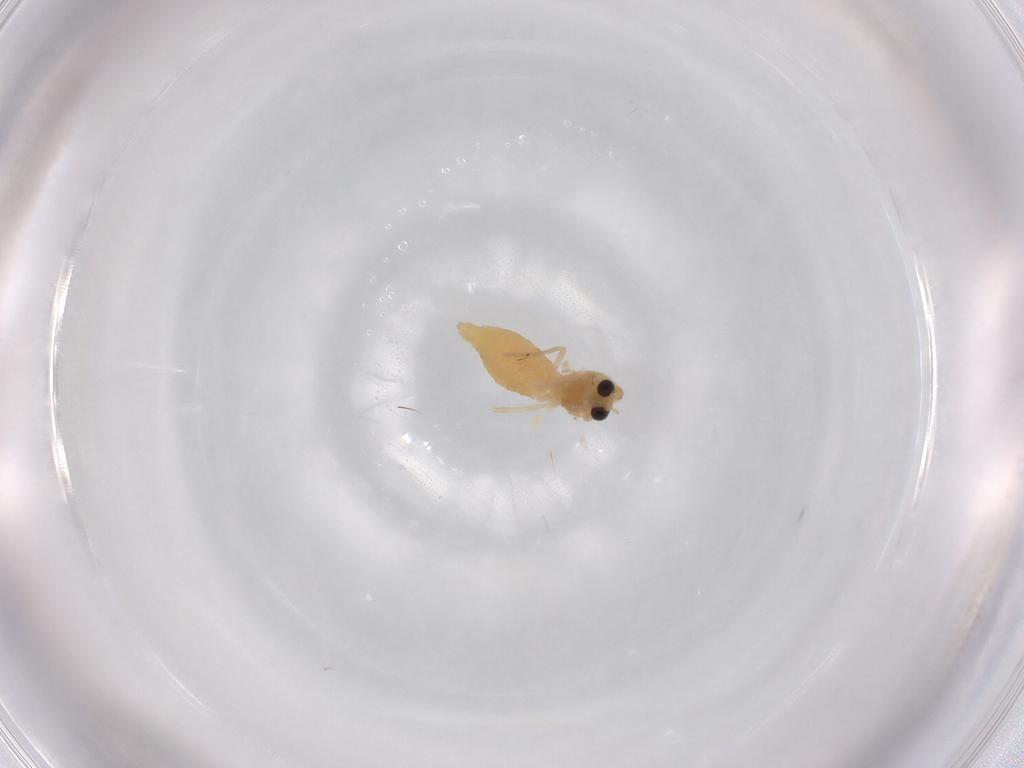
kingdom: Animalia
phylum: Arthropoda
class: Insecta
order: Diptera
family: Chironomidae
